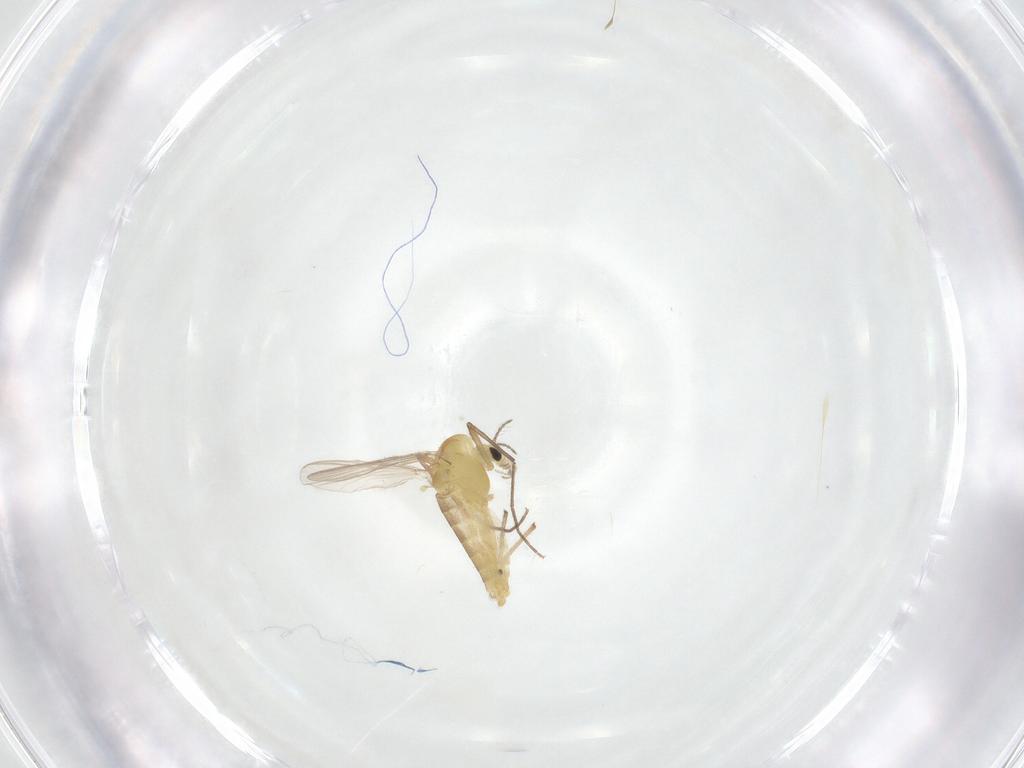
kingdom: Animalia
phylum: Arthropoda
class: Insecta
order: Diptera
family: Chironomidae
